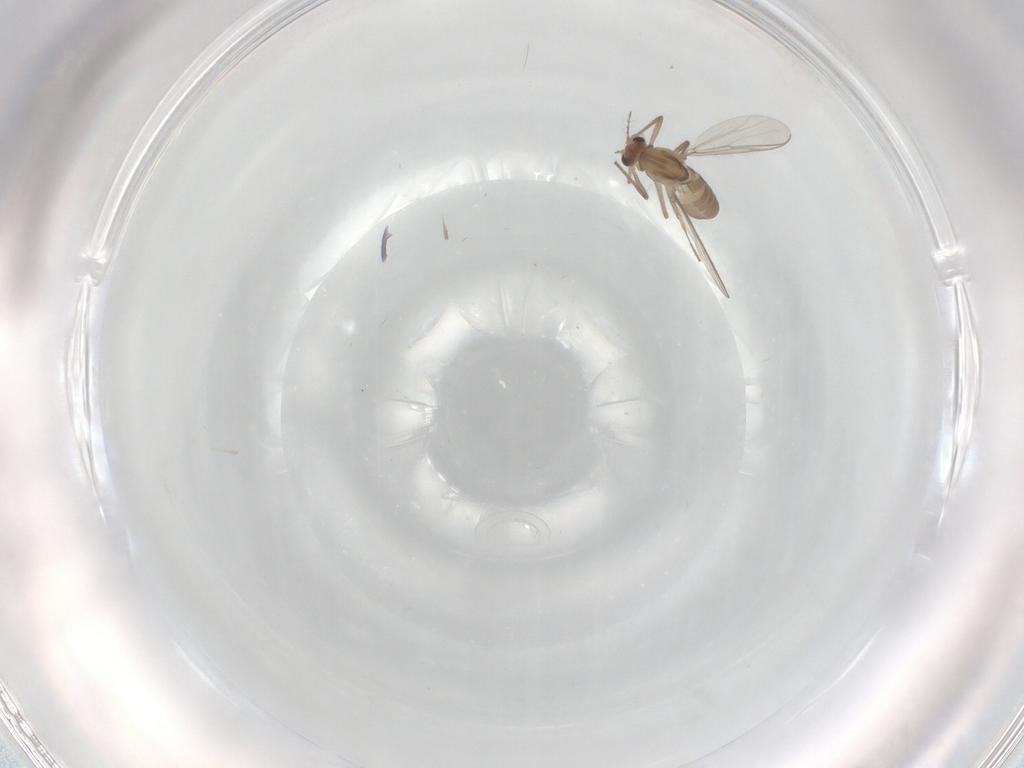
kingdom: Animalia
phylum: Arthropoda
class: Insecta
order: Diptera
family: Chironomidae
